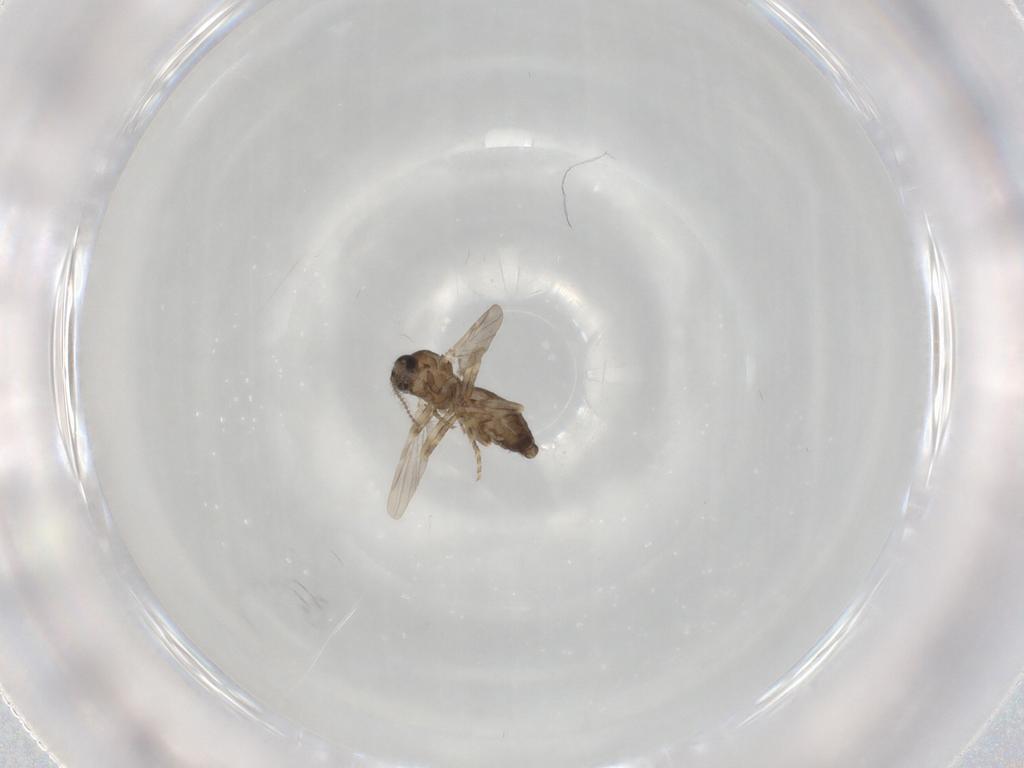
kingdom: Animalia
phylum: Arthropoda
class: Insecta
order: Diptera
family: Ceratopogonidae
